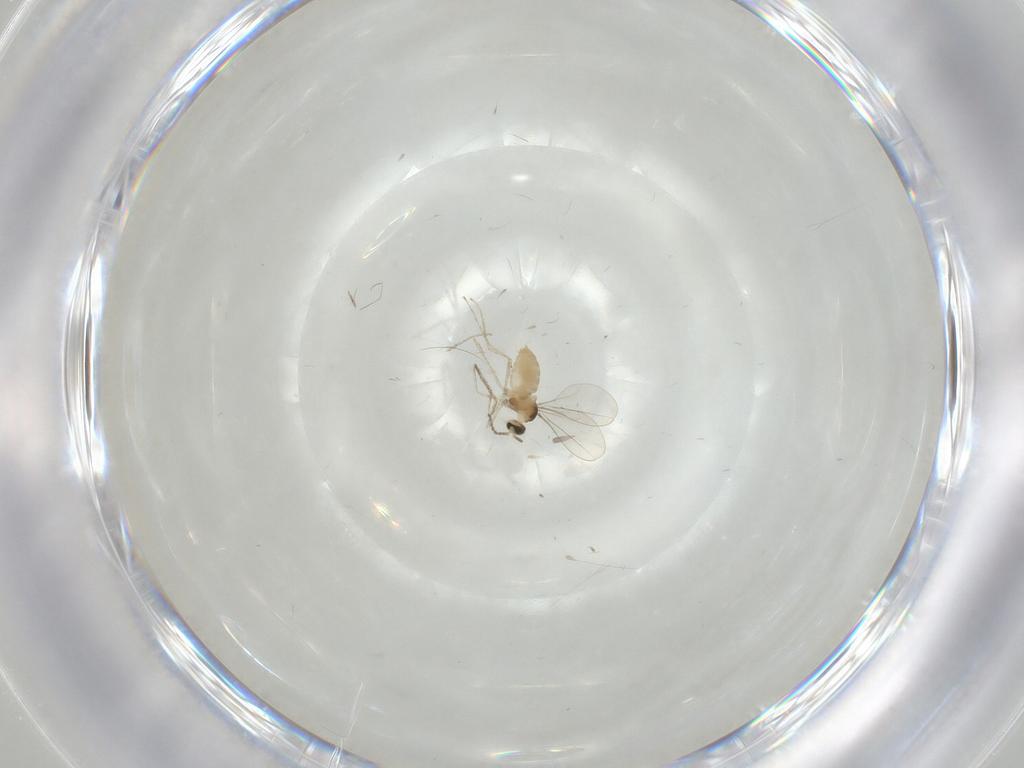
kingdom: Animalia
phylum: Arthropoda
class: Insecta
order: Diptera
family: Cecidomyiidae
